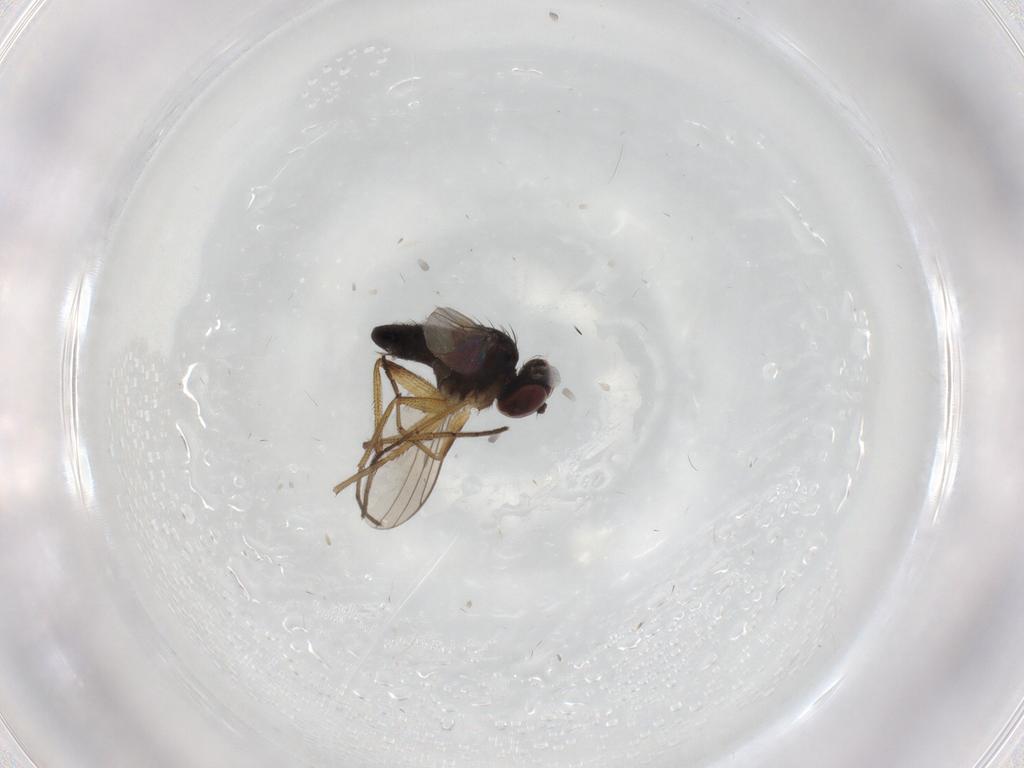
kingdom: Animalia
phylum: Arthropoda
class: Insecta
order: Diptera
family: Dolichopodidae
